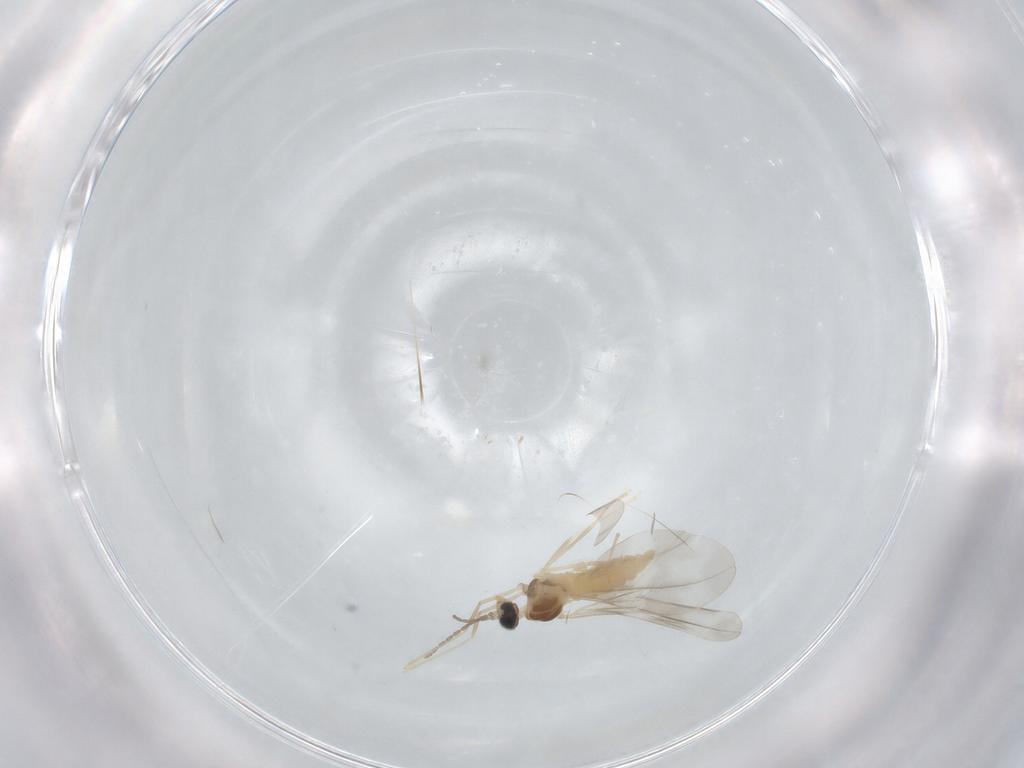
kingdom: Animalia
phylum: Arthropoda
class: Insecta
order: Diptera
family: Cecidomyiidae
